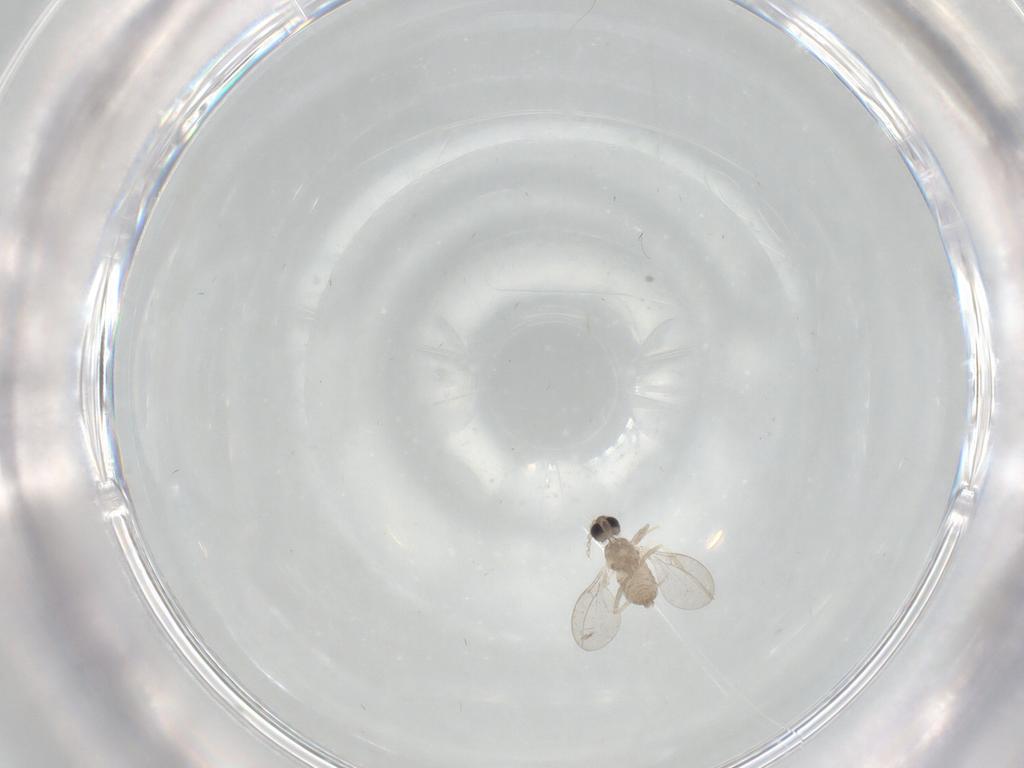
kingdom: Animalia
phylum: Arthropoda
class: Insecta
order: Diptera
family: Cecidomyiidae
